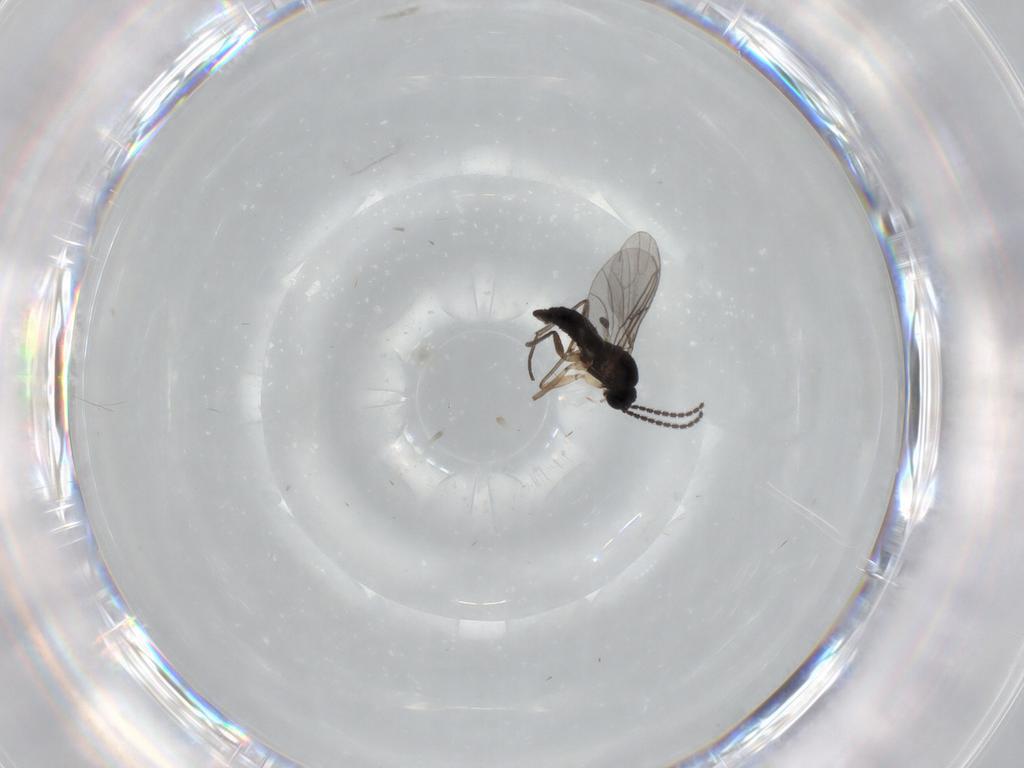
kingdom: Animalia
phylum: Arthropoda
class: Insecta
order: Diptera
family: Sciaridae
